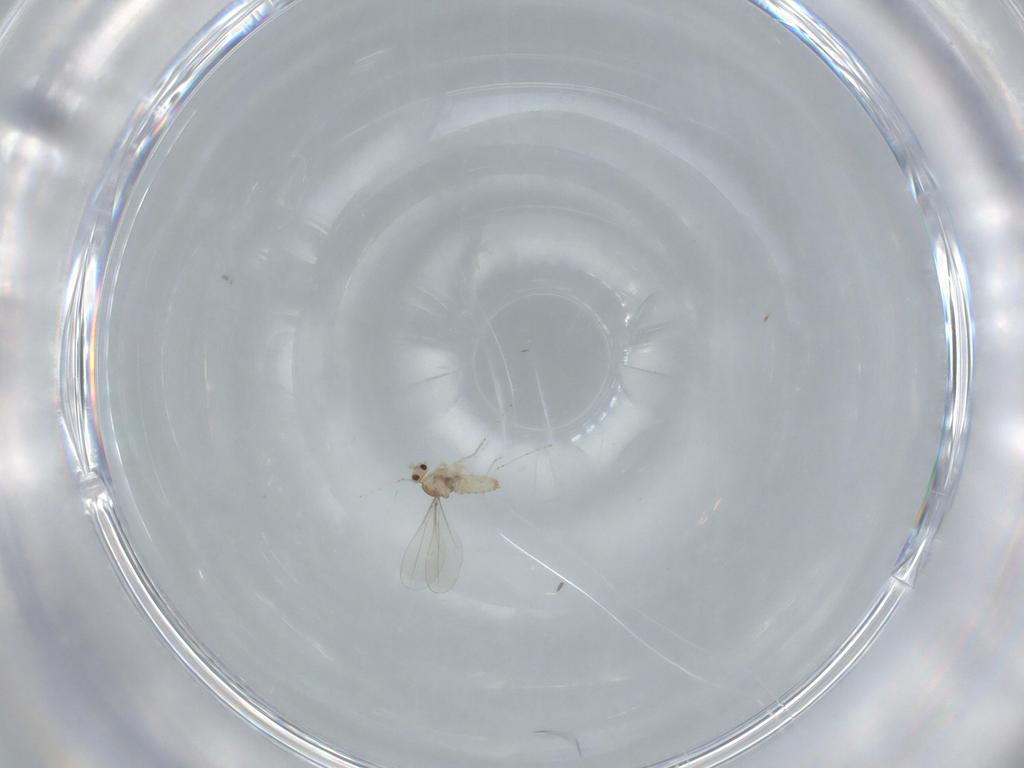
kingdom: Animalia
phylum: Arthropoda
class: Insecta
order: Diptera
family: Cecidomyiidae
